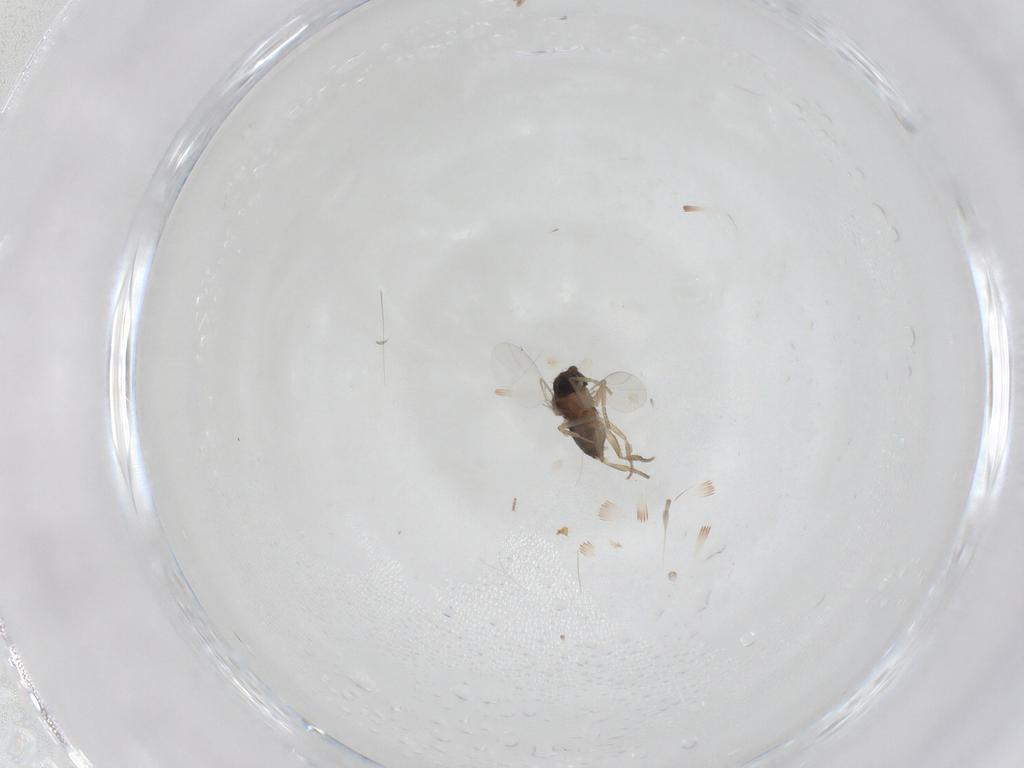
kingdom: Animalia
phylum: Arthropoda
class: Insecta
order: Diptera
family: Phoridae
